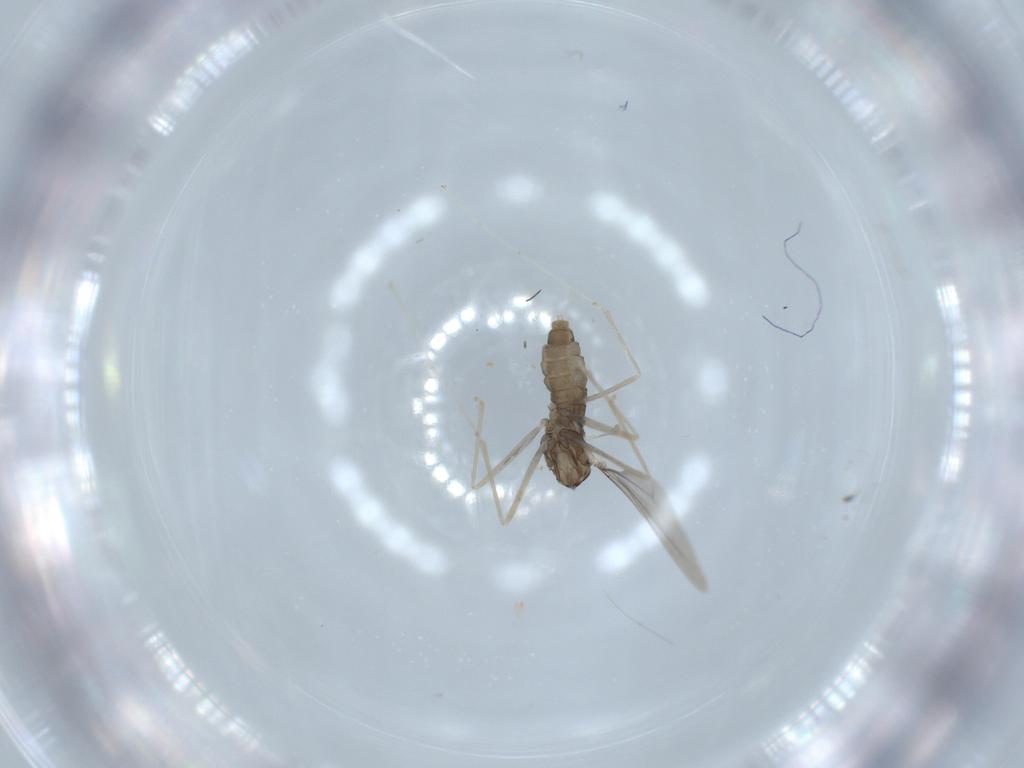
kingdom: Animalia
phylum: Arthropoda
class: Insecta
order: Diptera
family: Cecidomyiidae
